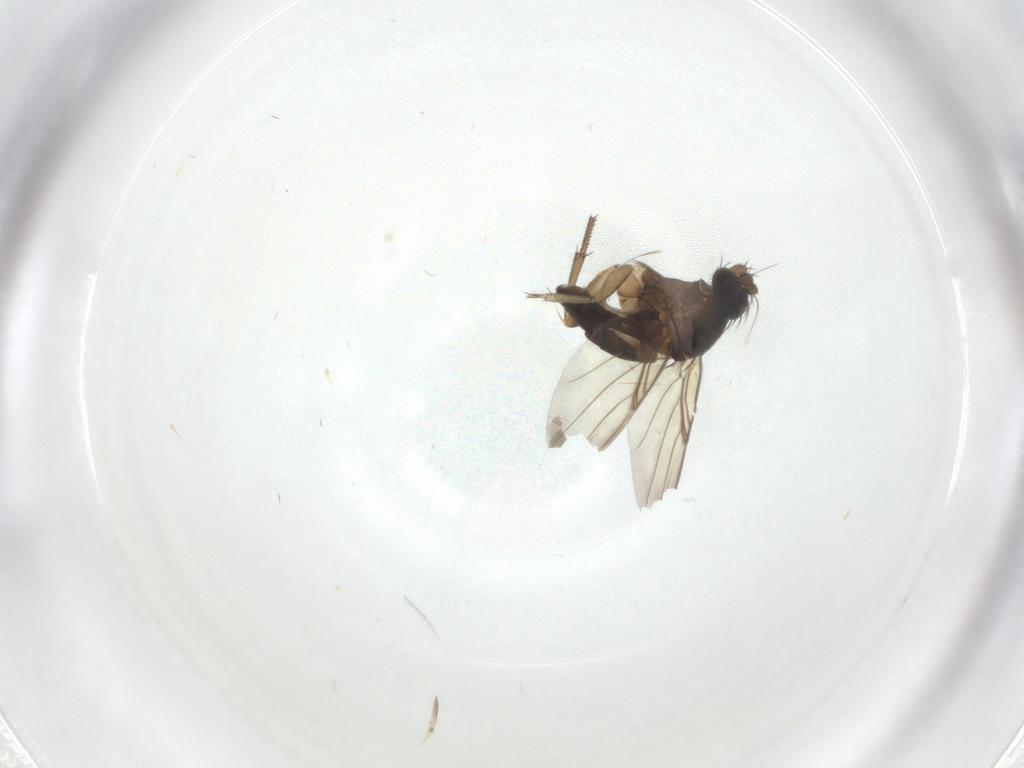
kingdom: Animalia
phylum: Arthropoda
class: Insecta
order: Diptera
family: Phoridae
